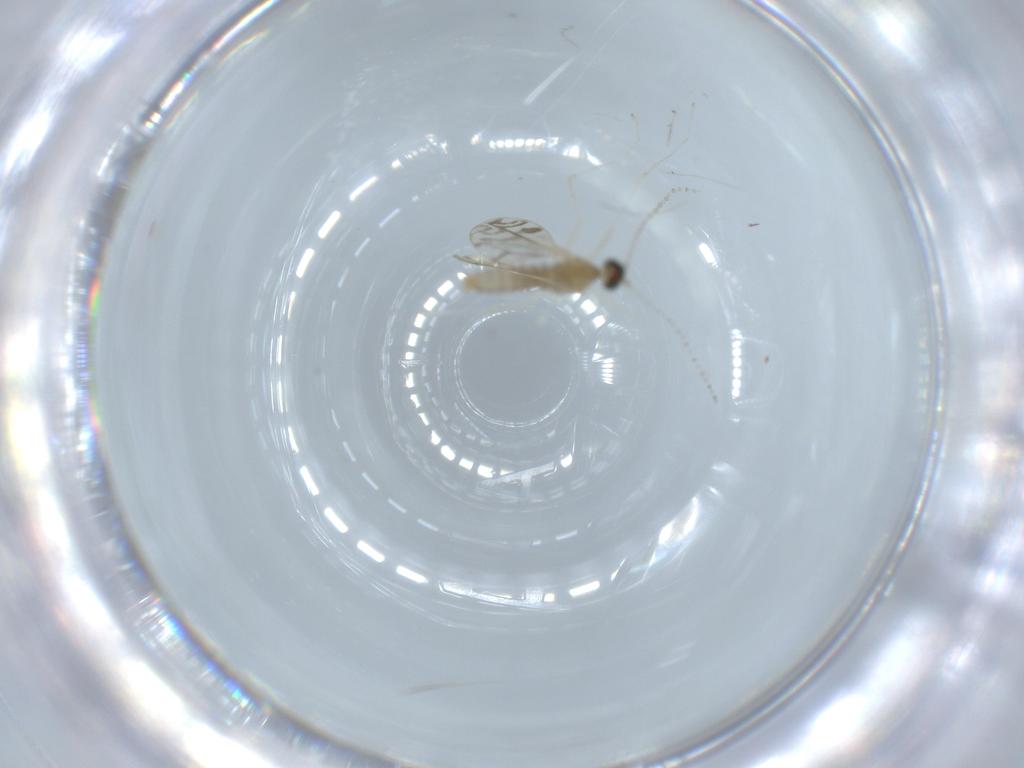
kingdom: Animalia
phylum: Arthropoda
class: Insecta
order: Diptera
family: Cecidomyiidae
